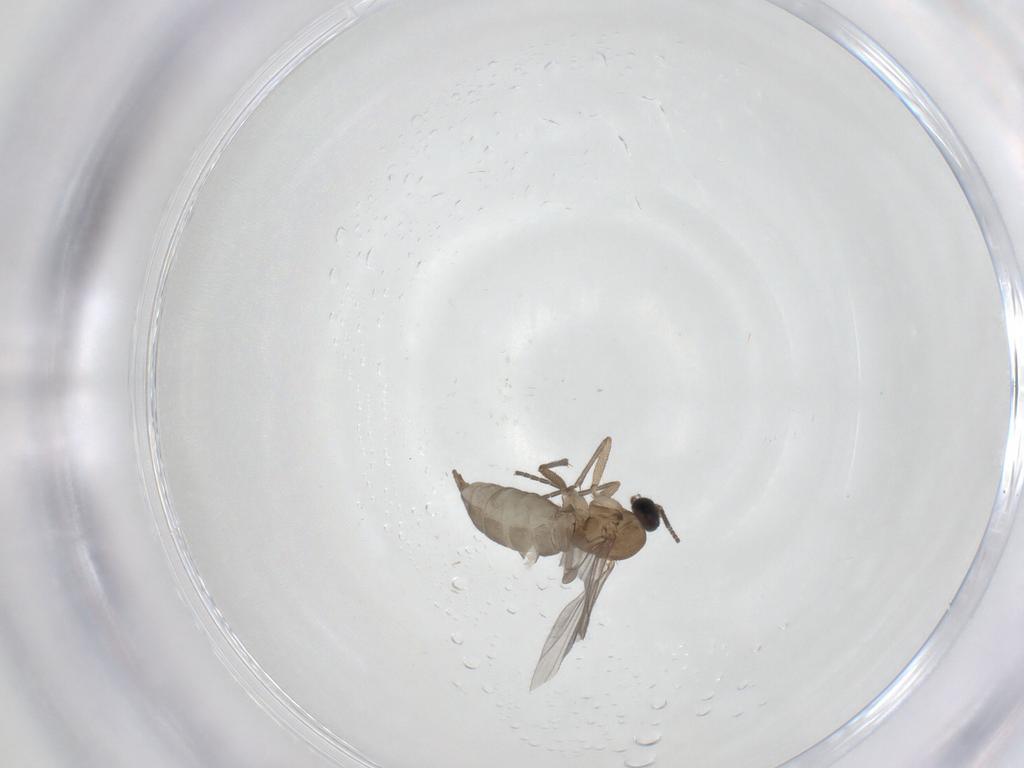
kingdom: Animalia
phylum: Arthropoda
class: Insecta
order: Diptera
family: Sciaridae
